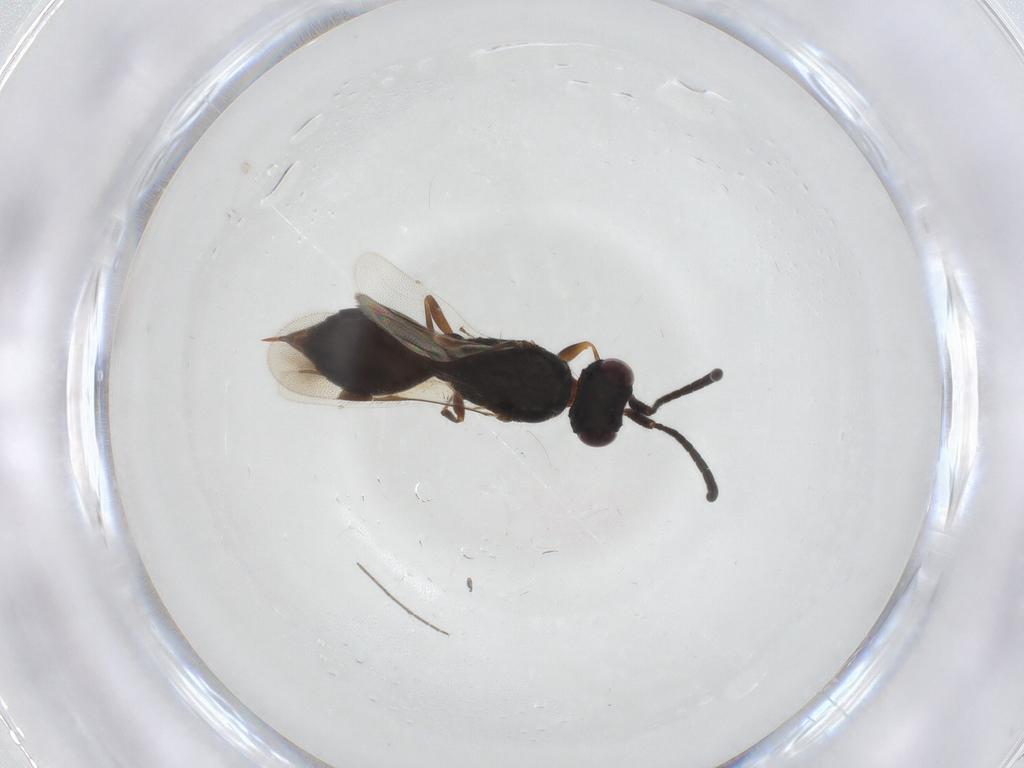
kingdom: Animalia
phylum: Arthropoda
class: Insecta
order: Hymenoptera
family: Megaspilidae
